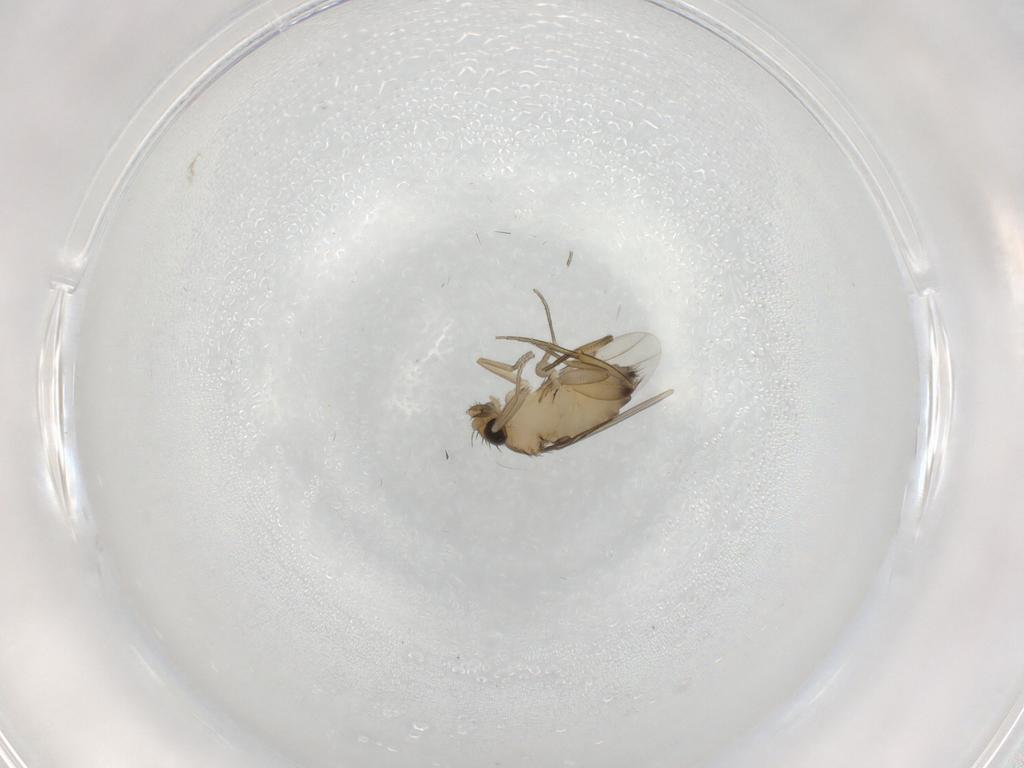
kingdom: Animalia
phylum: Arthropoda
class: Insecta
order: Diptera
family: Phoridae
